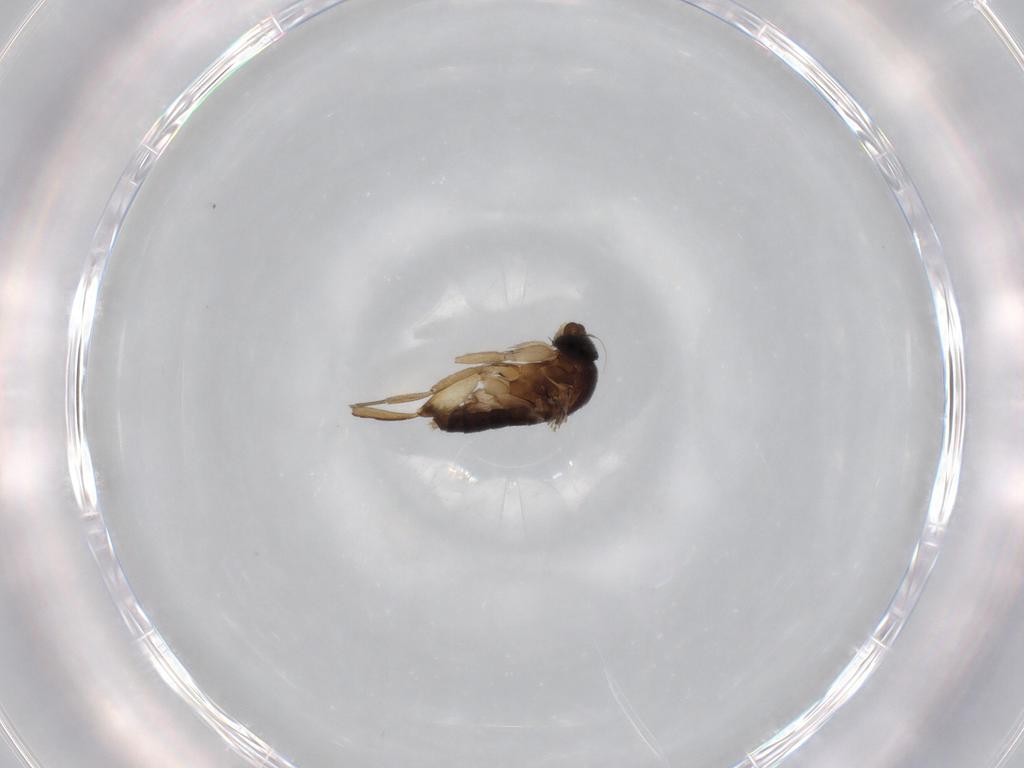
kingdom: Animalia
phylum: Arthropoda
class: Insecta
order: Diptera
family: Phoridae
